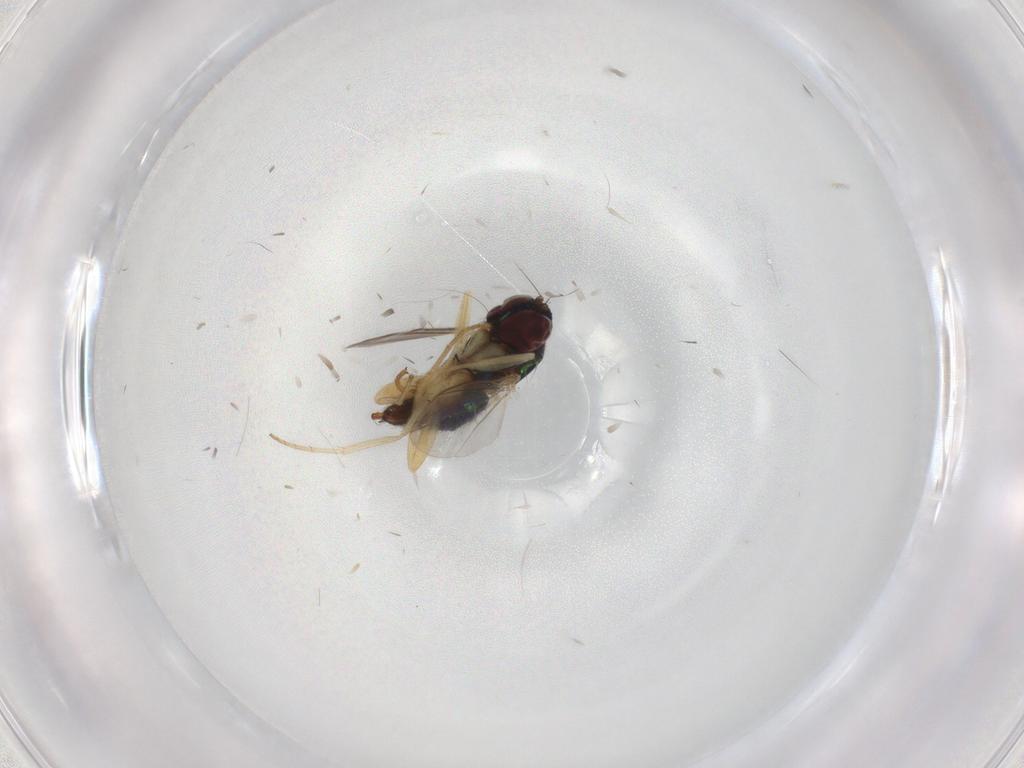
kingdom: Animalia
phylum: Arthropoda
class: Insecta
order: Diptera
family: Dolichopodidae
